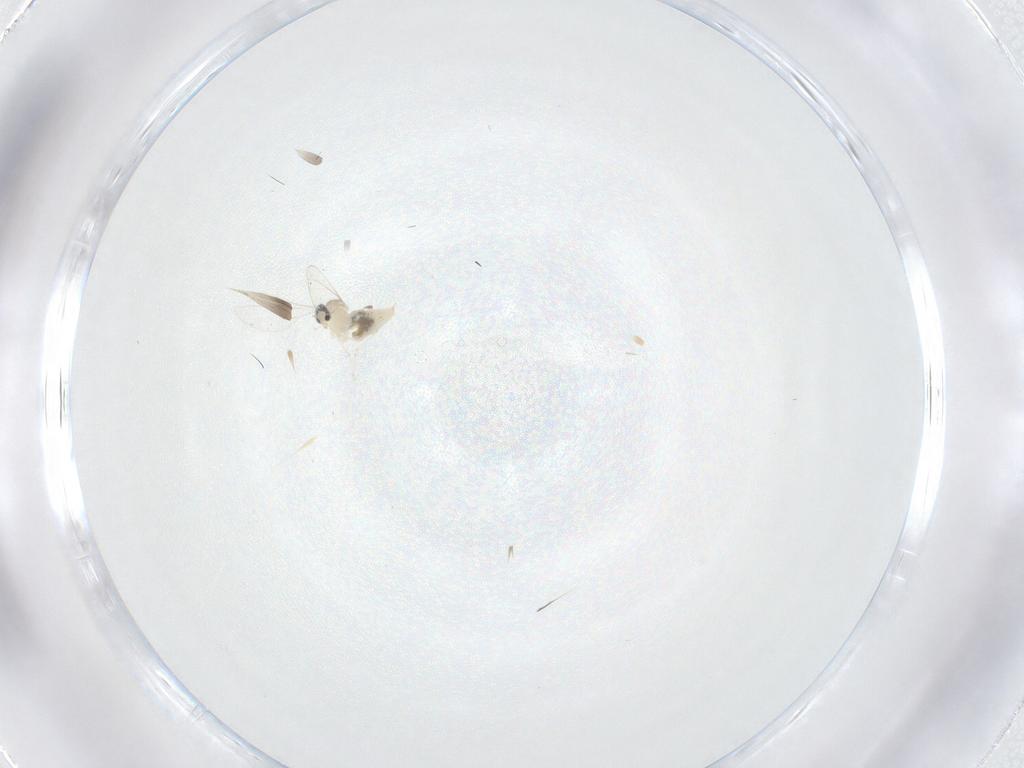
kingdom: Animalia
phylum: Arthropoda
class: Insecta
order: Diptera
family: Cecidomyiidae
